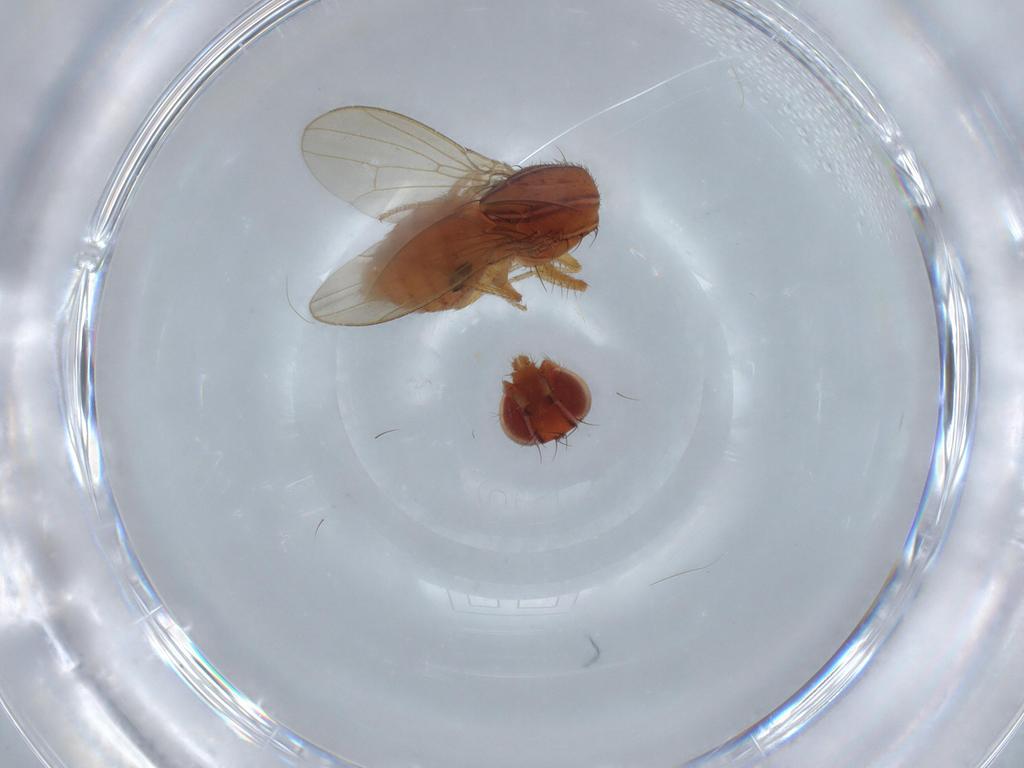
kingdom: Animalia
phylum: Arthropoda
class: Insecta
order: Diptera
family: Drosophilidae
